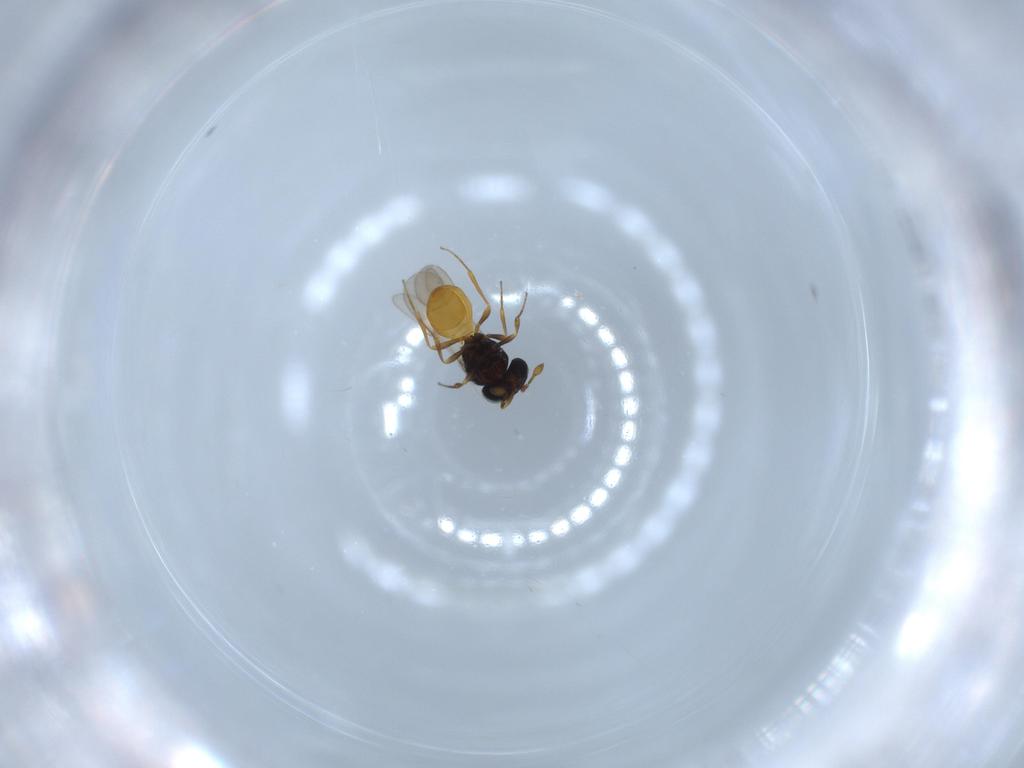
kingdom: Animalia
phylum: Arthropoda
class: Insecta
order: Hymenoptera
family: Scelionidae
